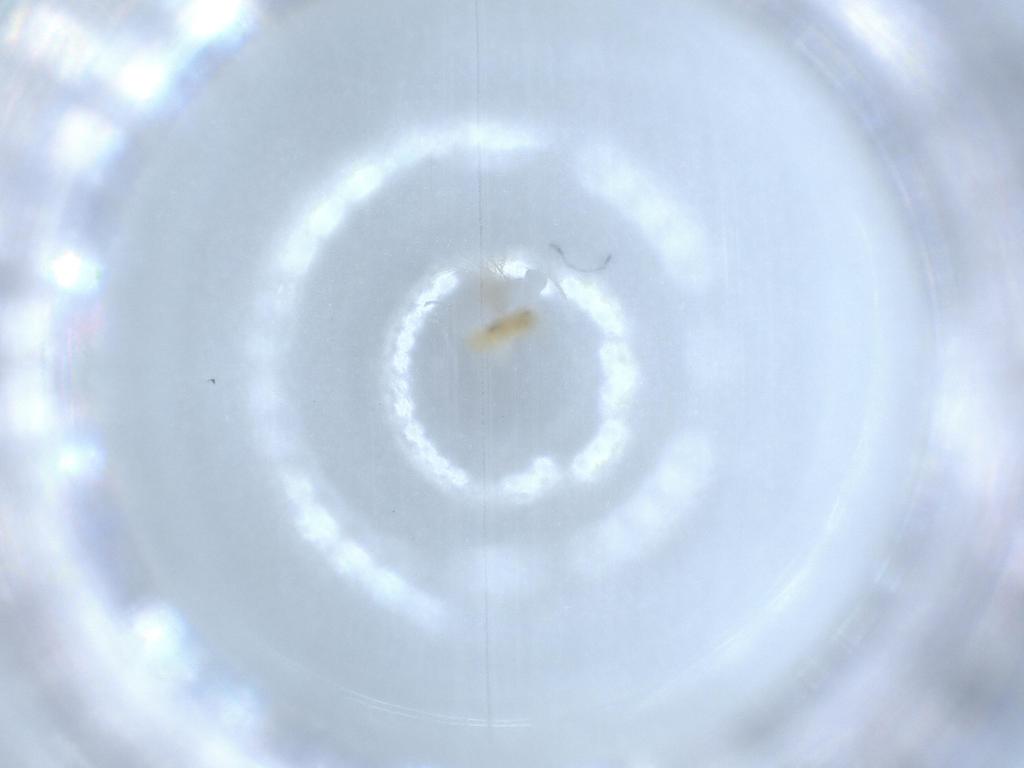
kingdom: Animalia
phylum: Arthropoda
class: Insecta
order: Hymenoptera
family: Aphelinidae
